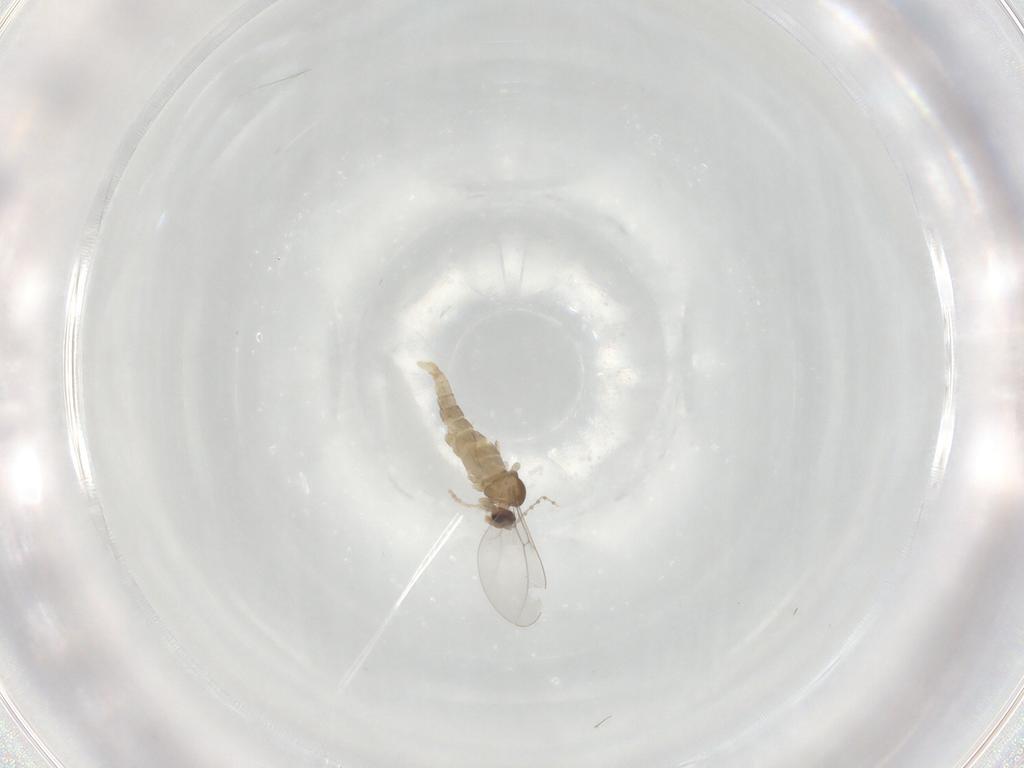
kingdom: Animalia
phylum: Arthropoda
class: Insecta
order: Diptera
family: Sciaridae
